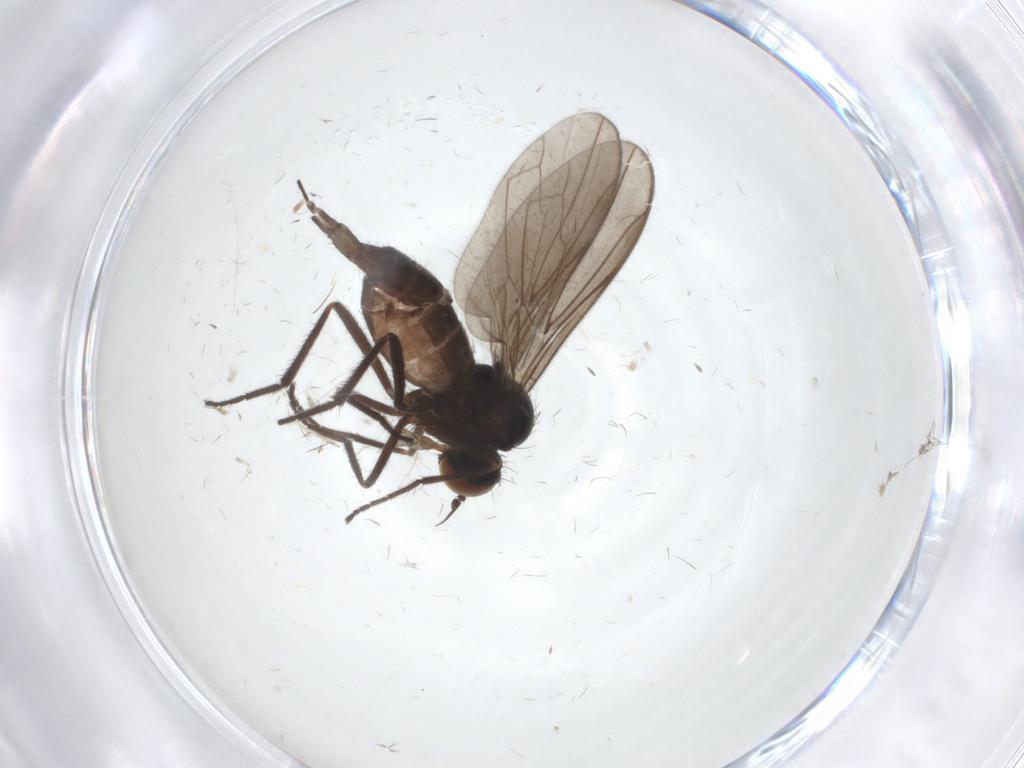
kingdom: Animalia
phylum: Arthropoda
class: Insecta
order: Diptera
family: Empididae
